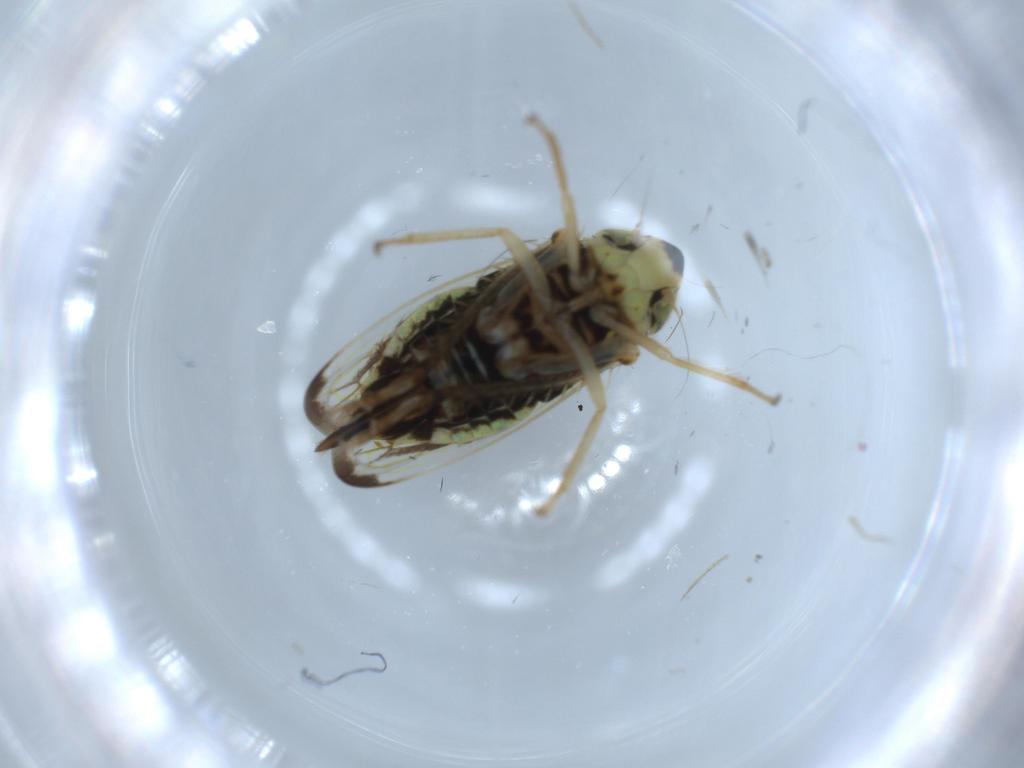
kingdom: Animalia
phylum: Arthropoda
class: Insecta
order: Hemiptera
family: Cicadellidae
